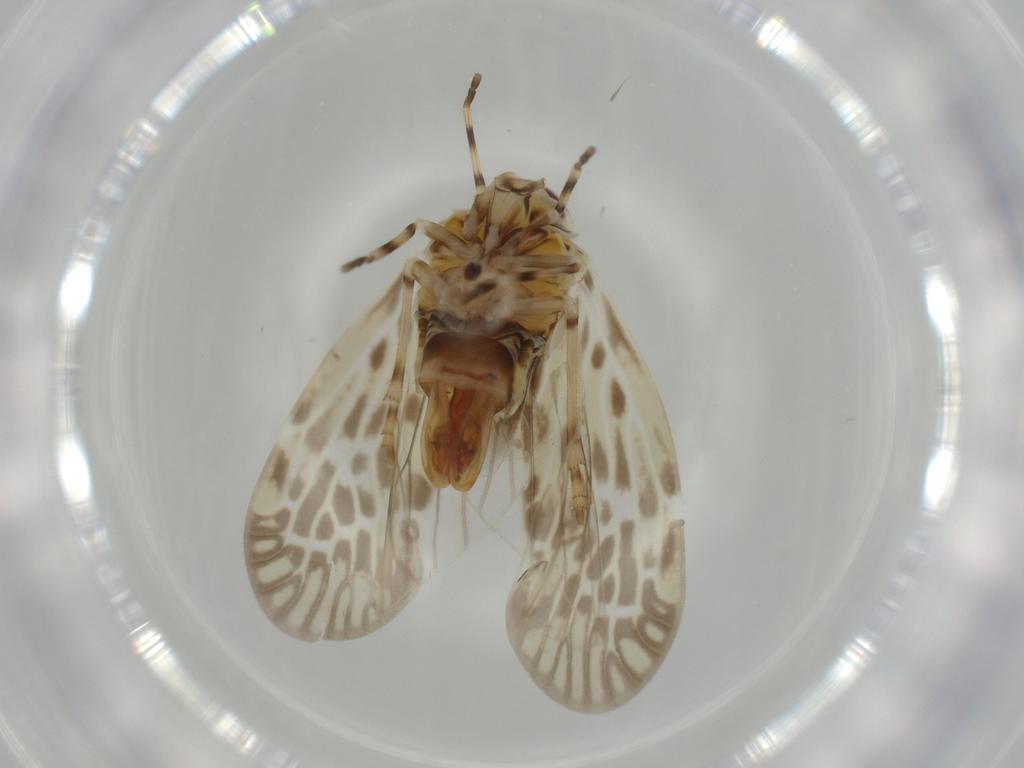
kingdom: Animalia
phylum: Arthropoda
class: Insecta
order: Hemiptera
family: Derbidae
